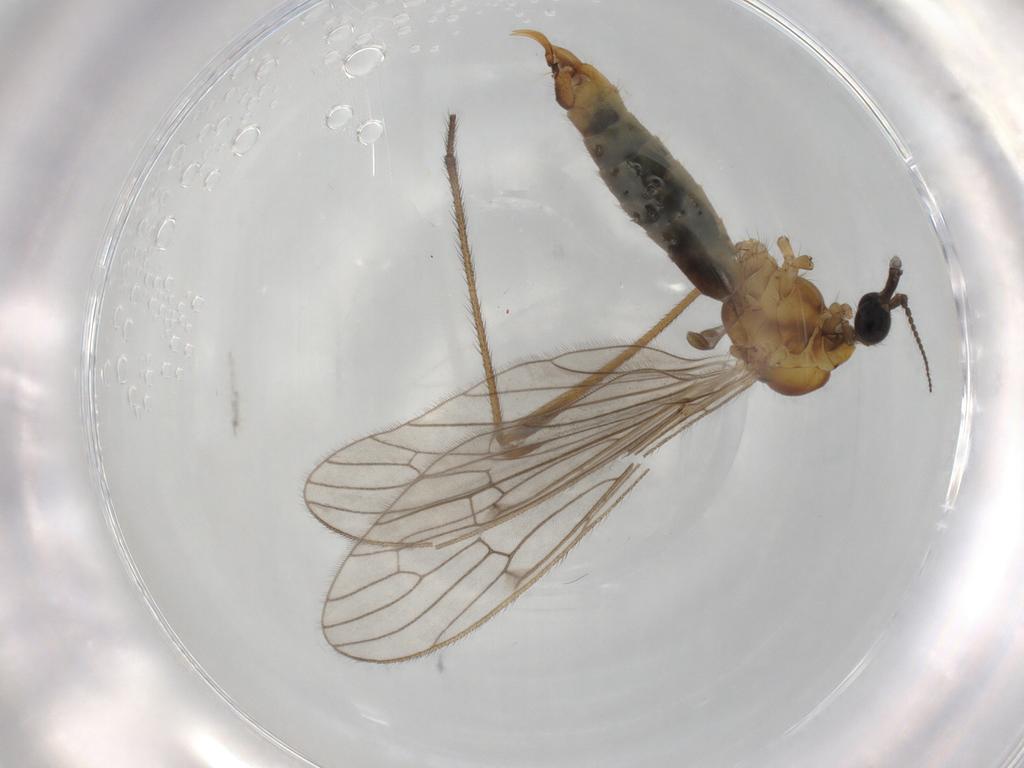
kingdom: Animalia
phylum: Arthropoda
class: Insecta
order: Diptera
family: Limoniidae
